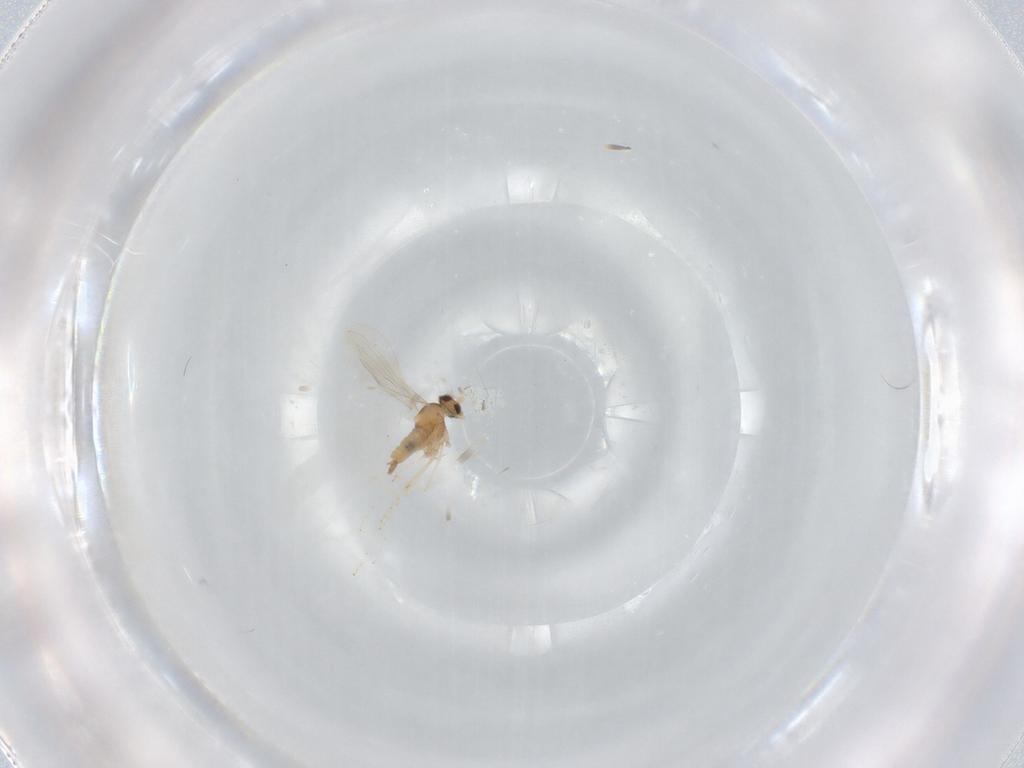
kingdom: Animalia
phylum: Arthropoda
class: Insecta
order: Diptera
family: Cecidomyiidae
